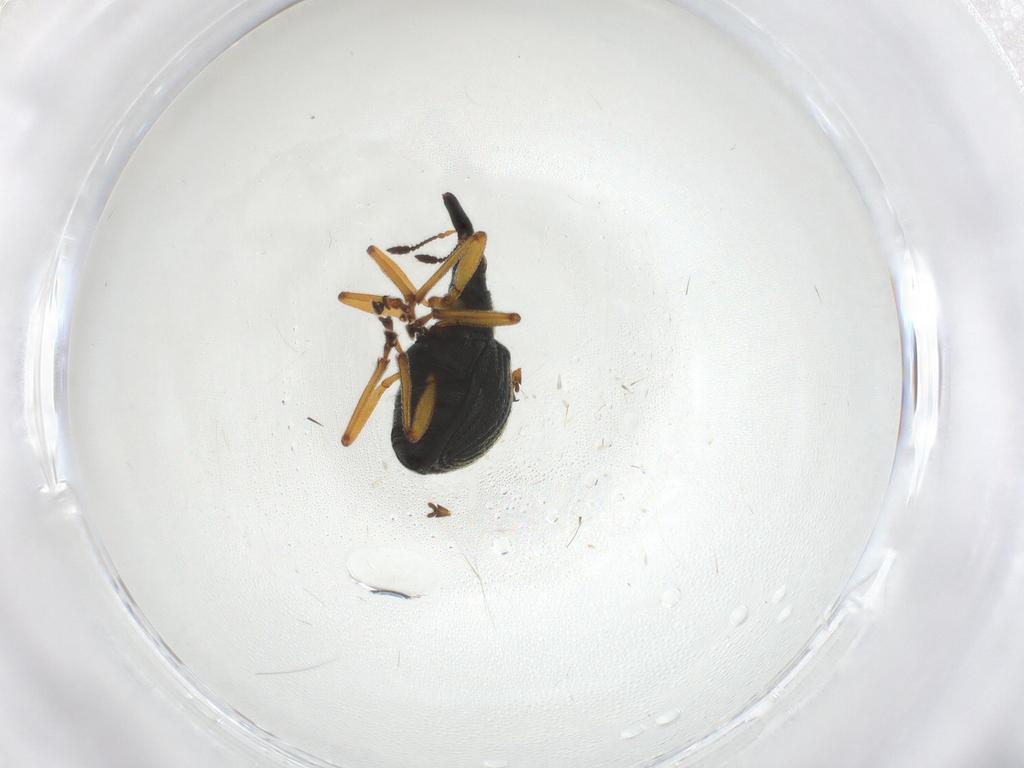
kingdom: Animalia
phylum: Arthropoda
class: Insecta
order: Coleoptera
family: Brentidae
